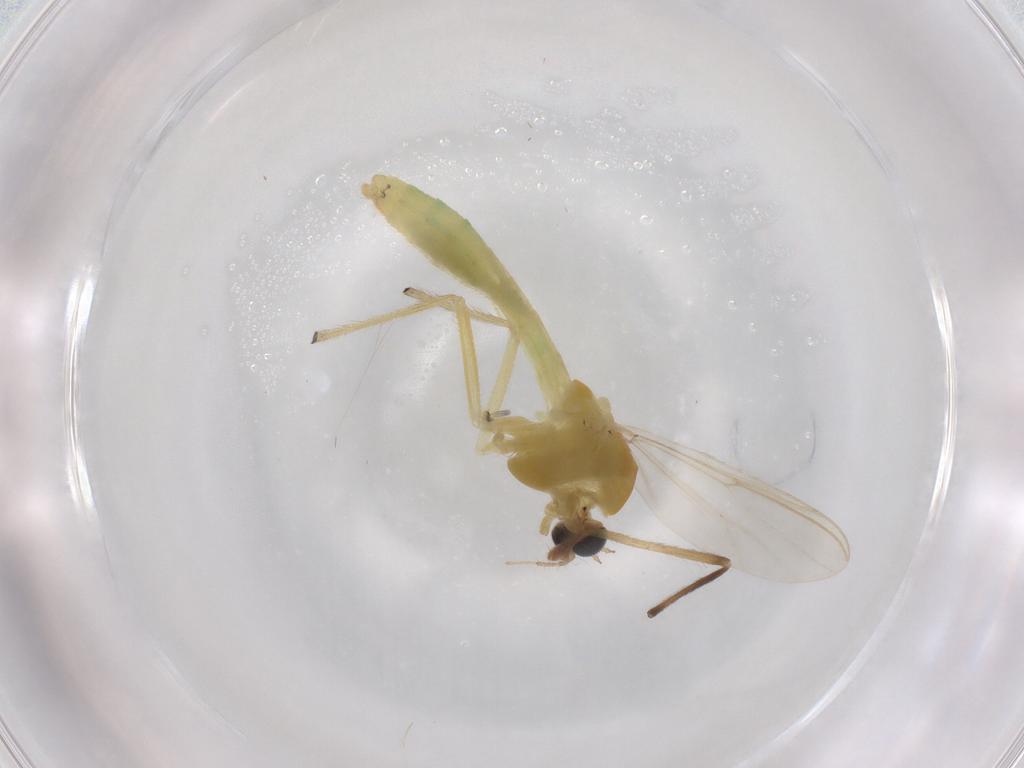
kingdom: Animalia
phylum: Arthropoda
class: Insecta
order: Diptera
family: Chironomidae
